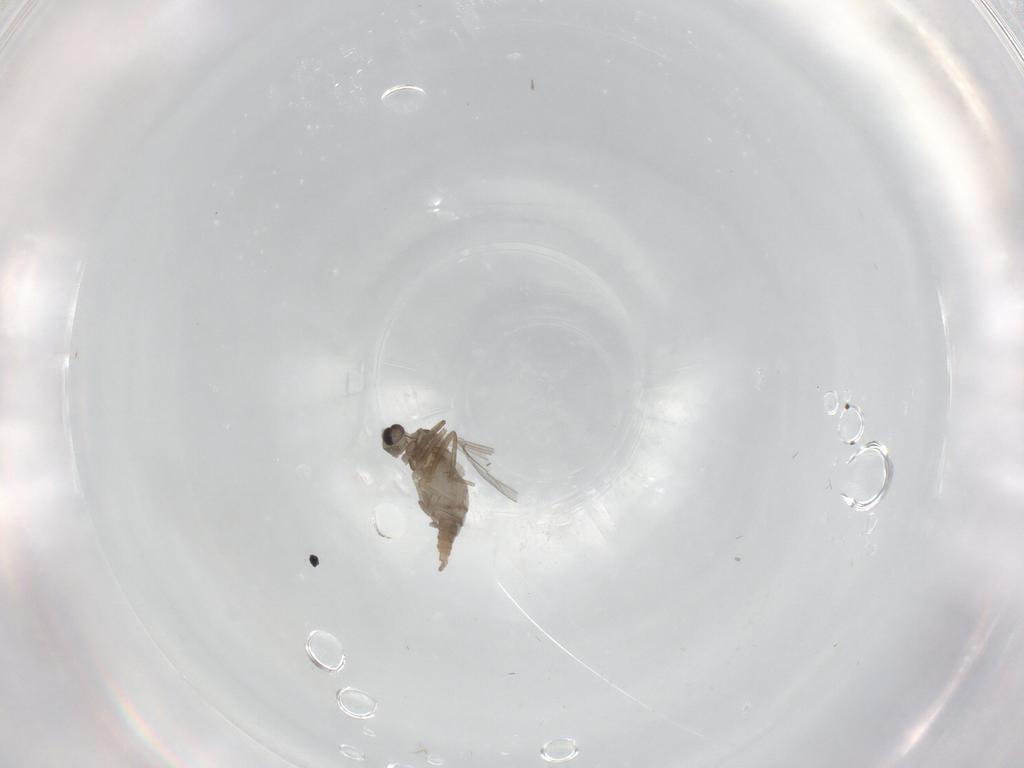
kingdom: Animalia
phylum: Arthropoda
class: Insecta
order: Diptera
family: Cecidomyiidae
